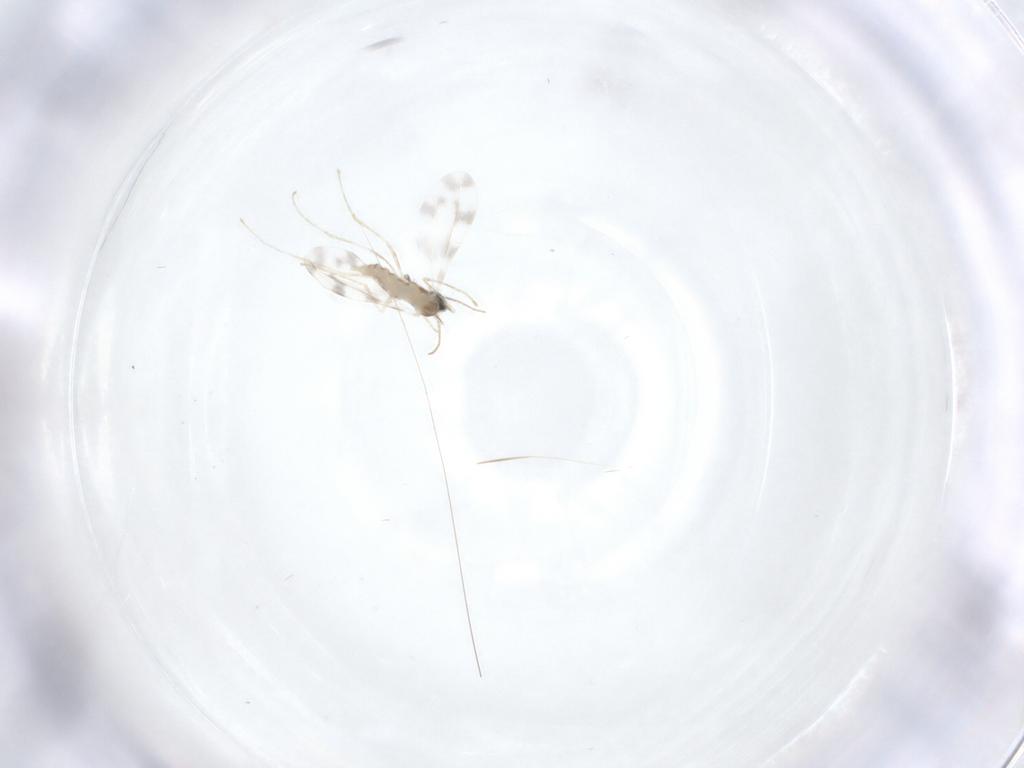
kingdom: Animalia
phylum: Arthropoda
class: Insecta
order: Diptera
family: Cecidomyiidae
